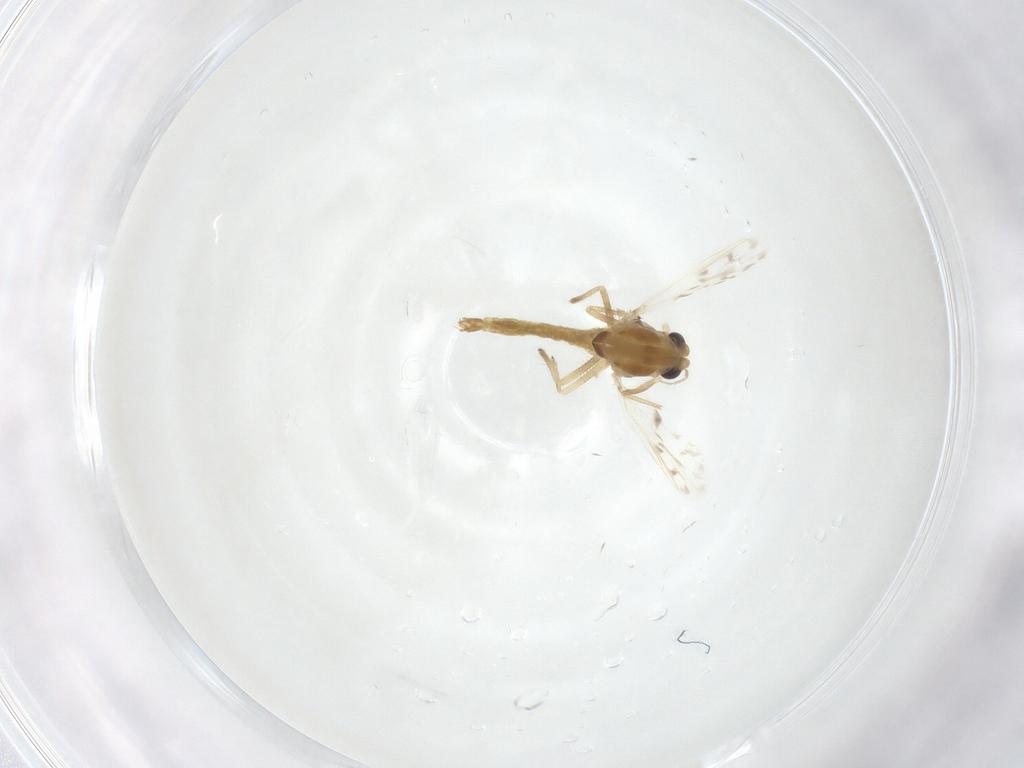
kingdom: Animalia
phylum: Arthropoda
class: Insecta
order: Diptera
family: Chironomidae
